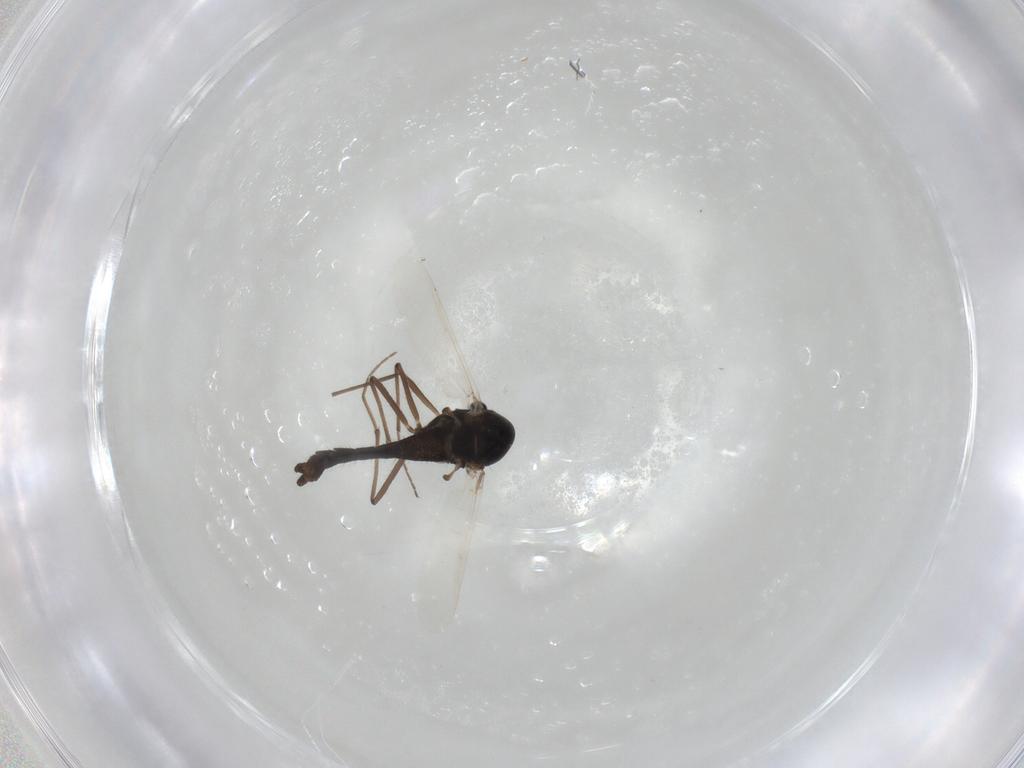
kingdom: Animalia
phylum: Arthropoda
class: Insecta
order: Diptera
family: Chironomidae
